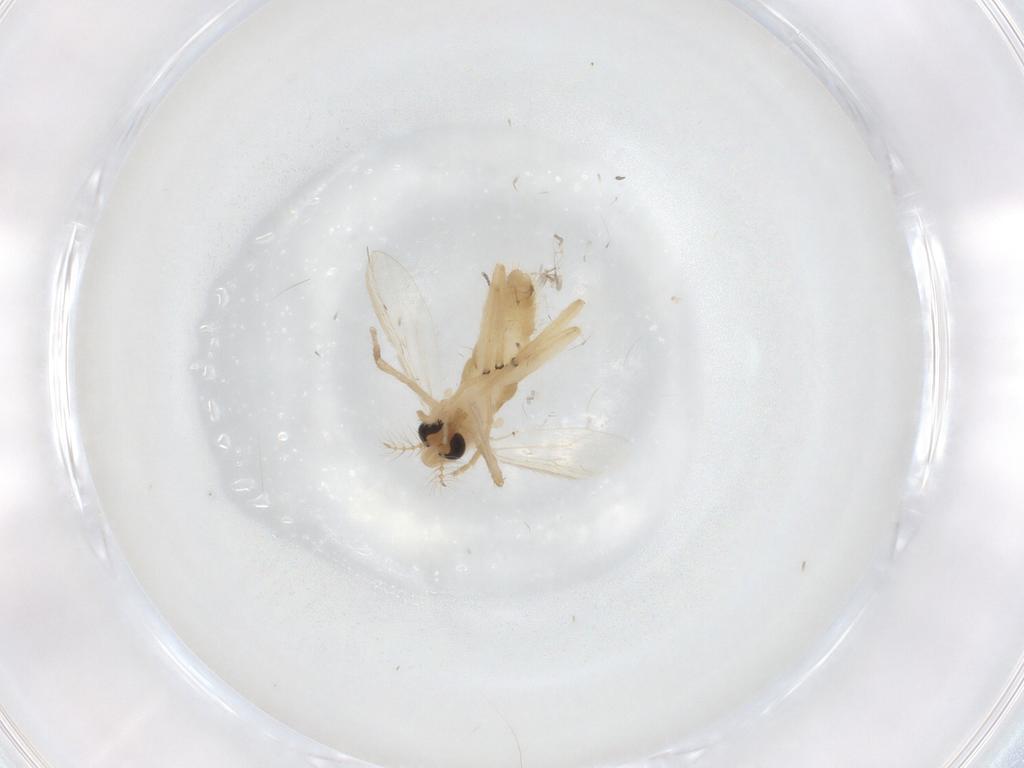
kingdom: Animalia
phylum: Arthropoda
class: Insecta
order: Diptera
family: Chironomidae
